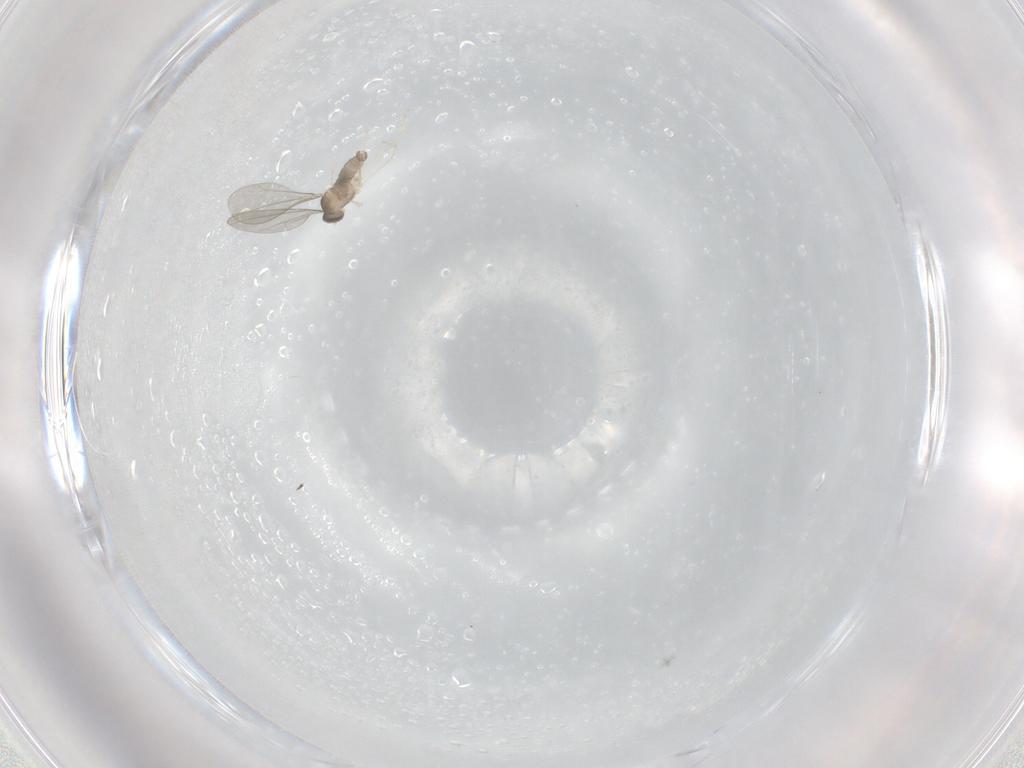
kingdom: Animalia
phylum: Arthropoda
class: Insecta
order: Diptera
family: Cecidomyiidae
